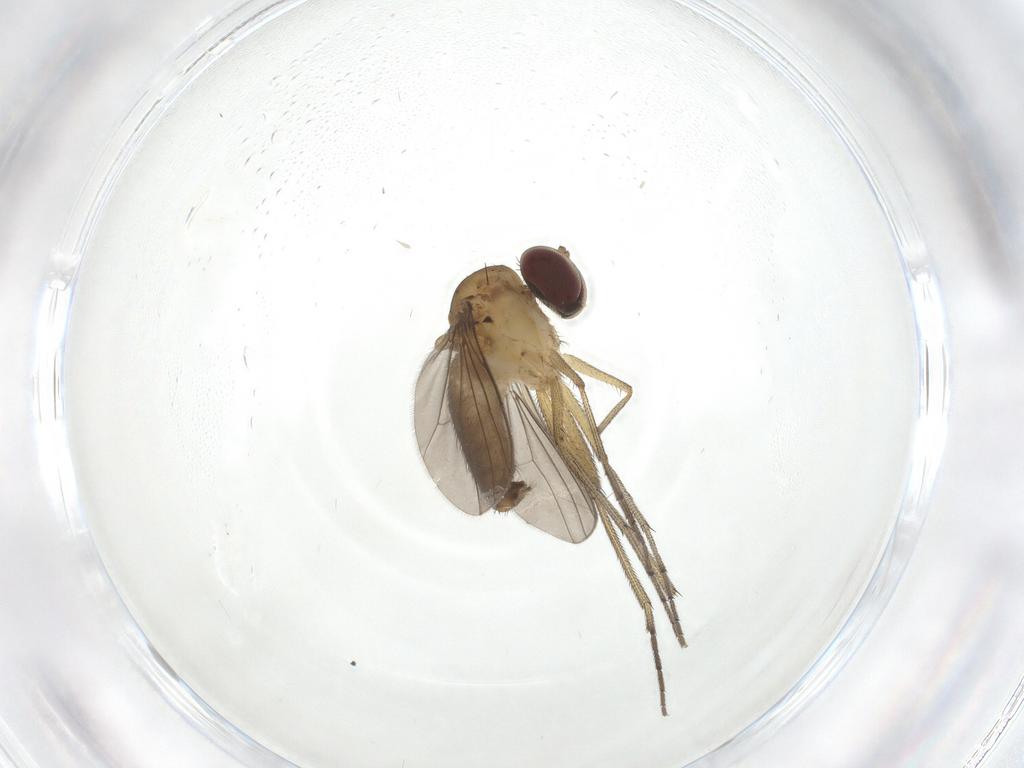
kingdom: Animalia
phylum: Arthropoda
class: Insecta
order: Diptera
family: Dolichopodidae
